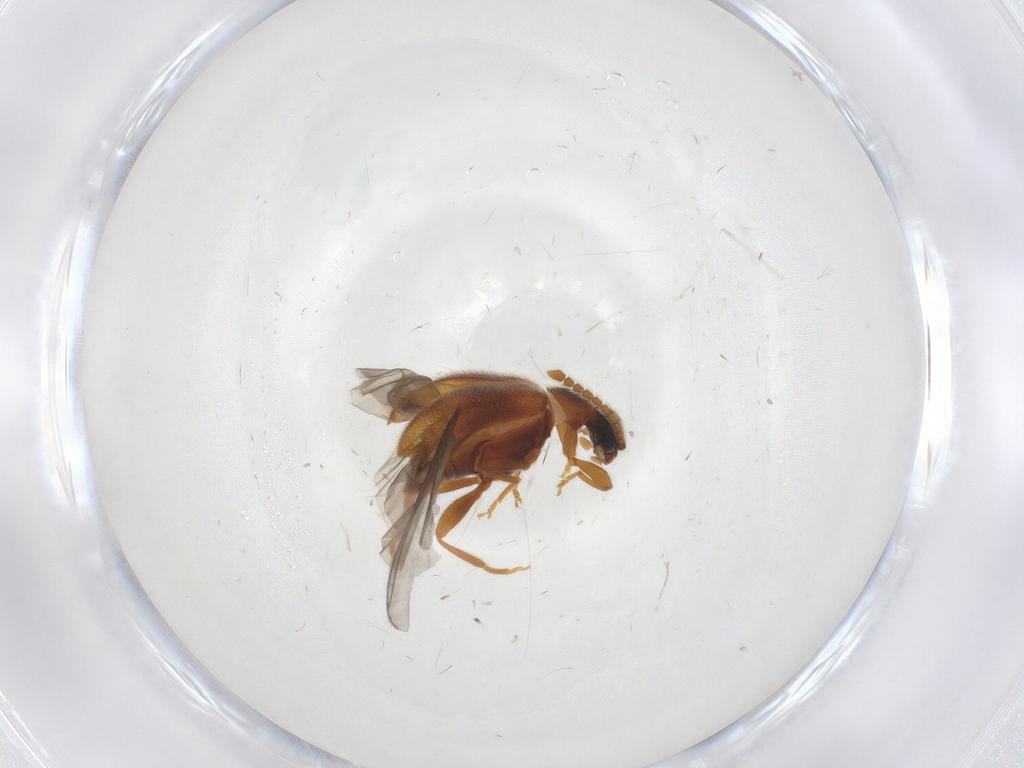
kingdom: Animalia
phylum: Arthropoda
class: Insecta
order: Coleoptera
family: Aderidae
